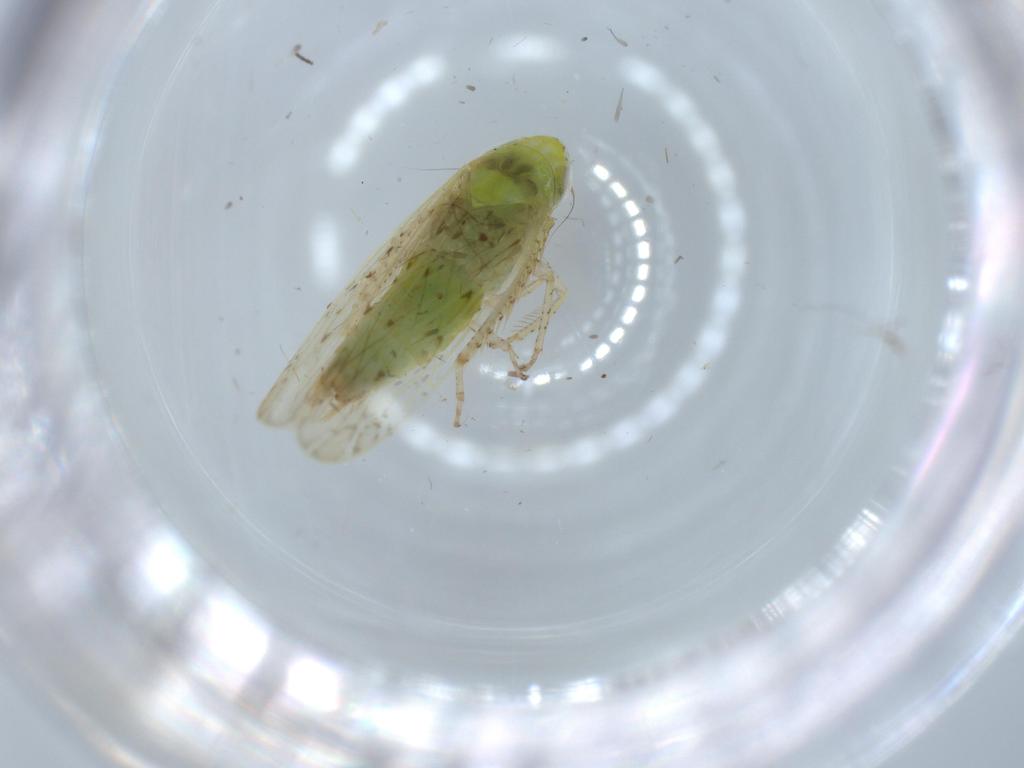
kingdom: Animalia
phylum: Arthropoda
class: Insecta
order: Hemiptera
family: Cicadellidae
